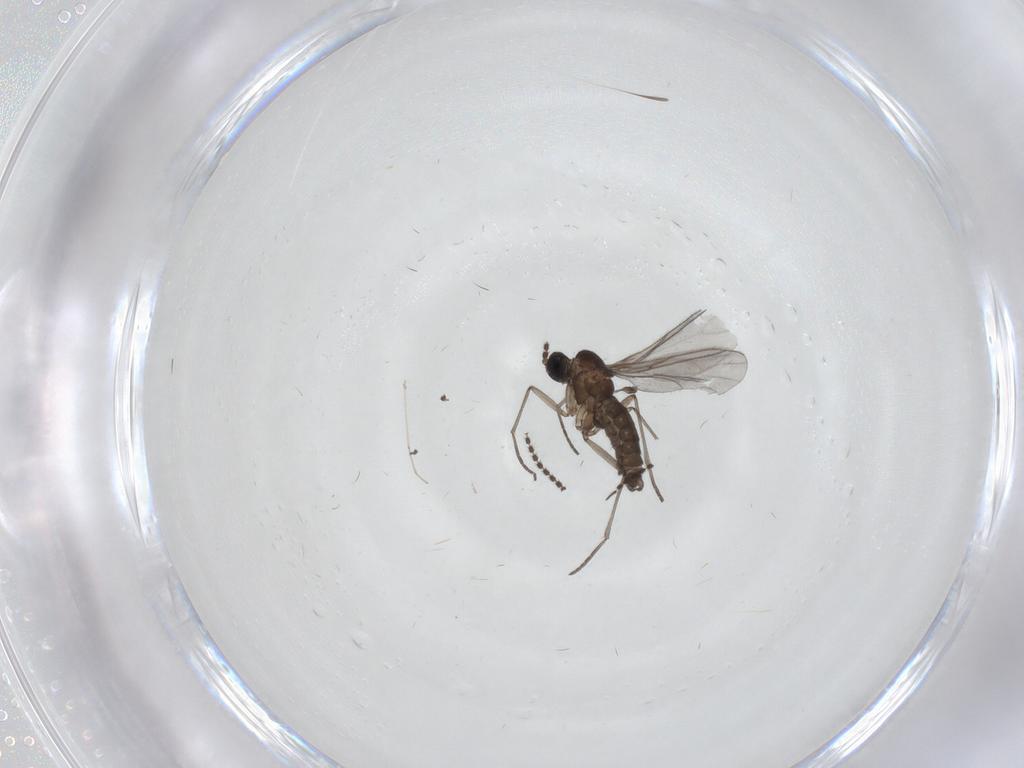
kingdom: Animalia
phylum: Arthropoda
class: Insecta
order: Diptera
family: Sciaridae
